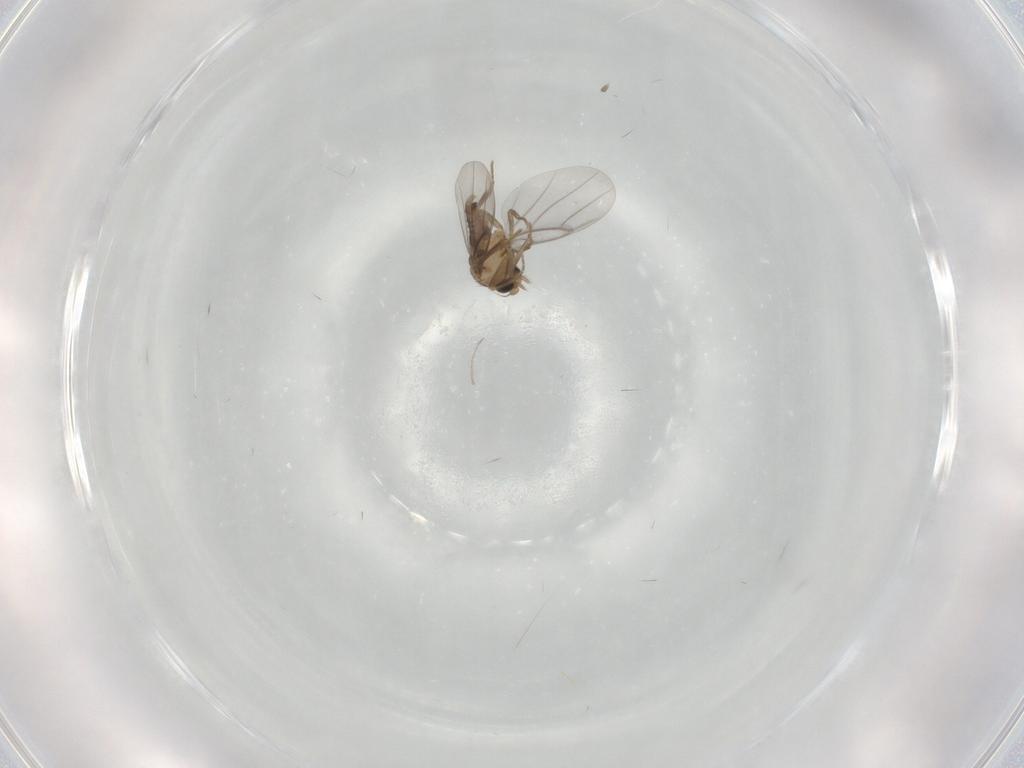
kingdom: Animalia
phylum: Arthropoda
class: Insecta
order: Diptera
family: Ceratopogonidae
